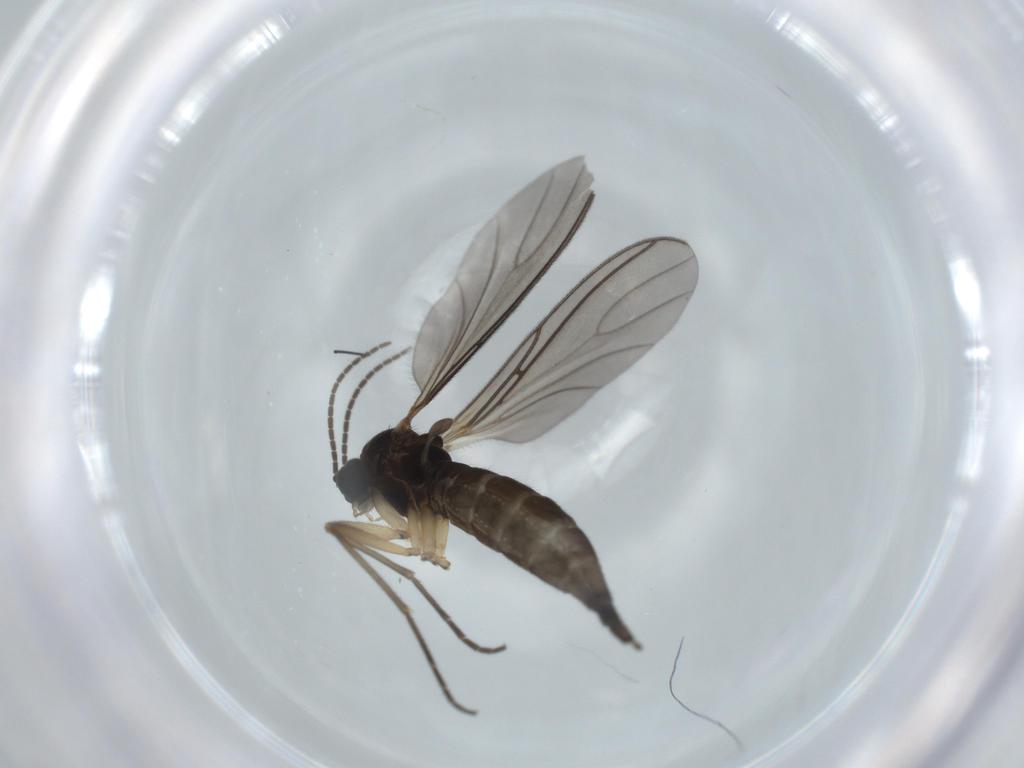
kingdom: Animalia
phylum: Arthropoda
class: Insecta
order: Diptera
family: Sciaridae
